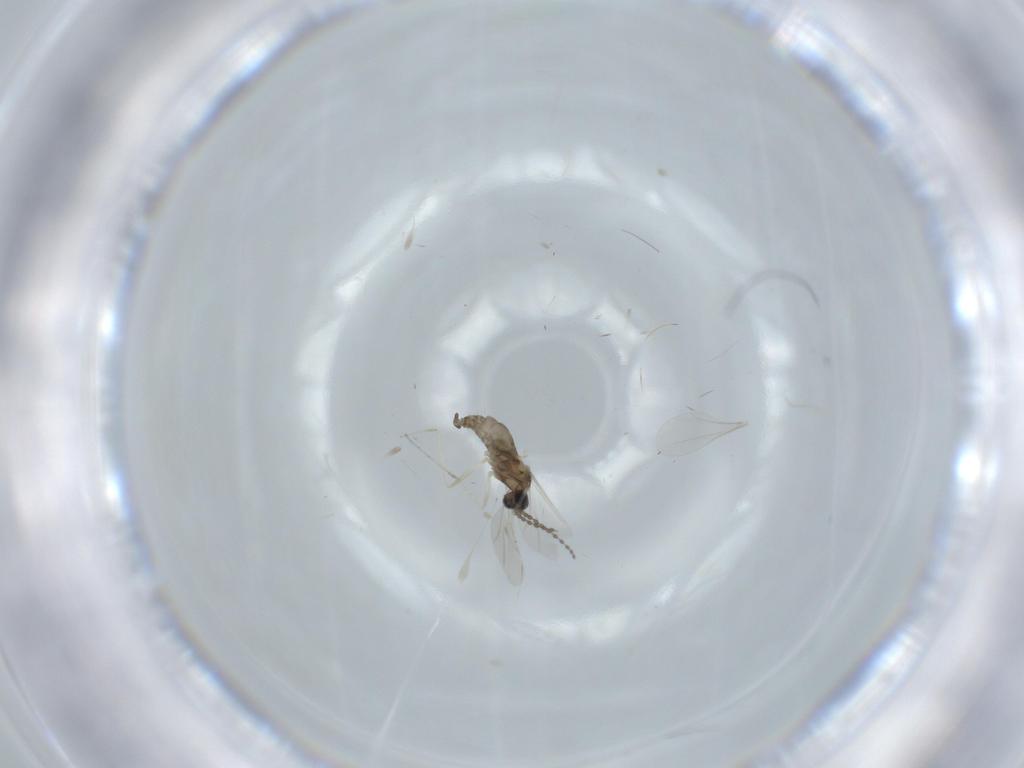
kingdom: Animalia
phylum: Arthropoda
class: Insecta
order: Diptera
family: Cecidomyiidae
